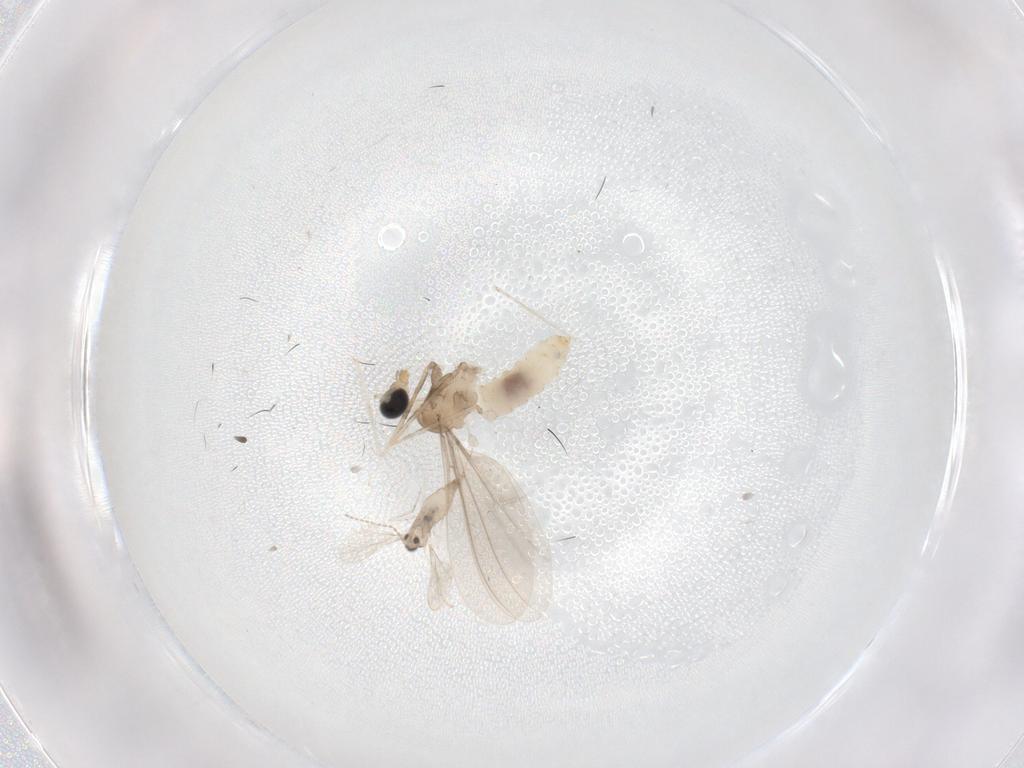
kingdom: Animalia
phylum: Arthropoda
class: Insecta
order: Diptera
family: Cecidomyiidae
